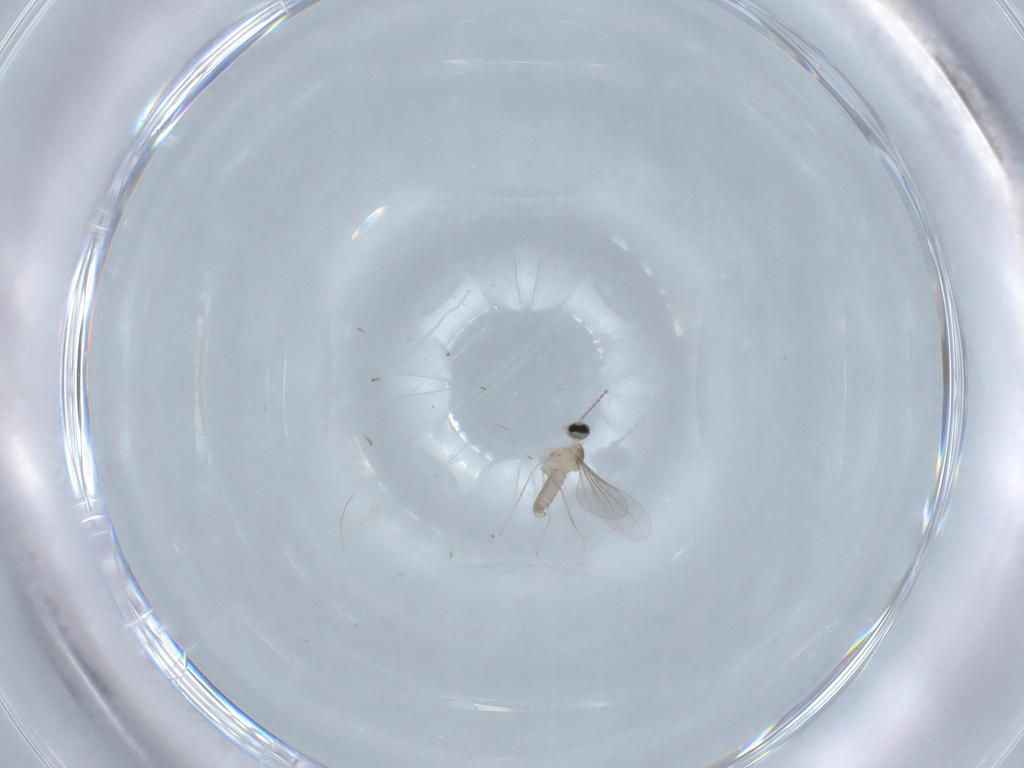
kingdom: Animalia
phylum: Arthropoda
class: Insecta
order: Diptera
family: Cecidomyiidae
